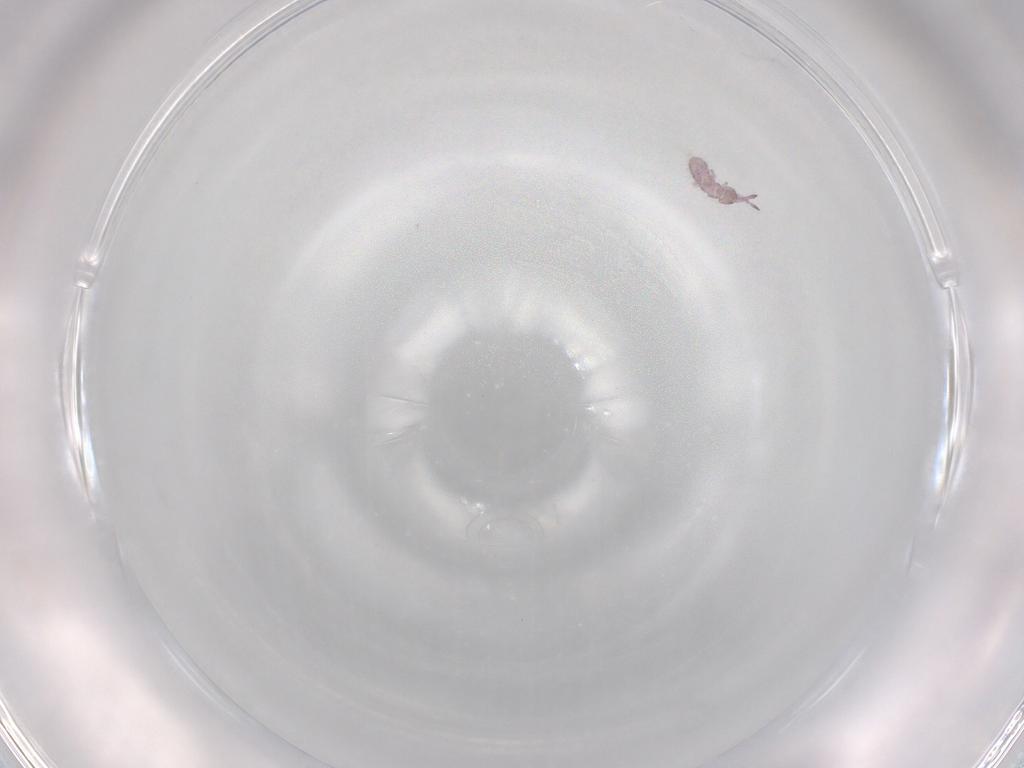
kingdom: Animalia
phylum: Arthropoda
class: Collembola
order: Entomobryomorpha
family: Isotomidae
